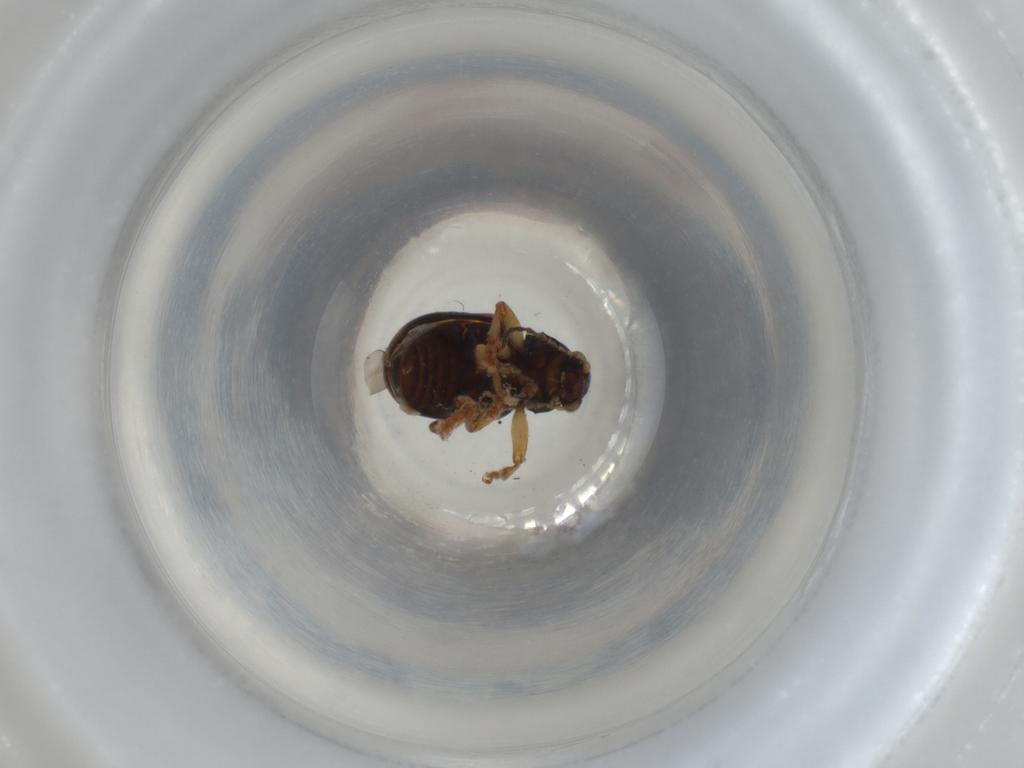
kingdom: Animalia
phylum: Arthropoda
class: Insecta
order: Coleoptera
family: Chrysomelidae
